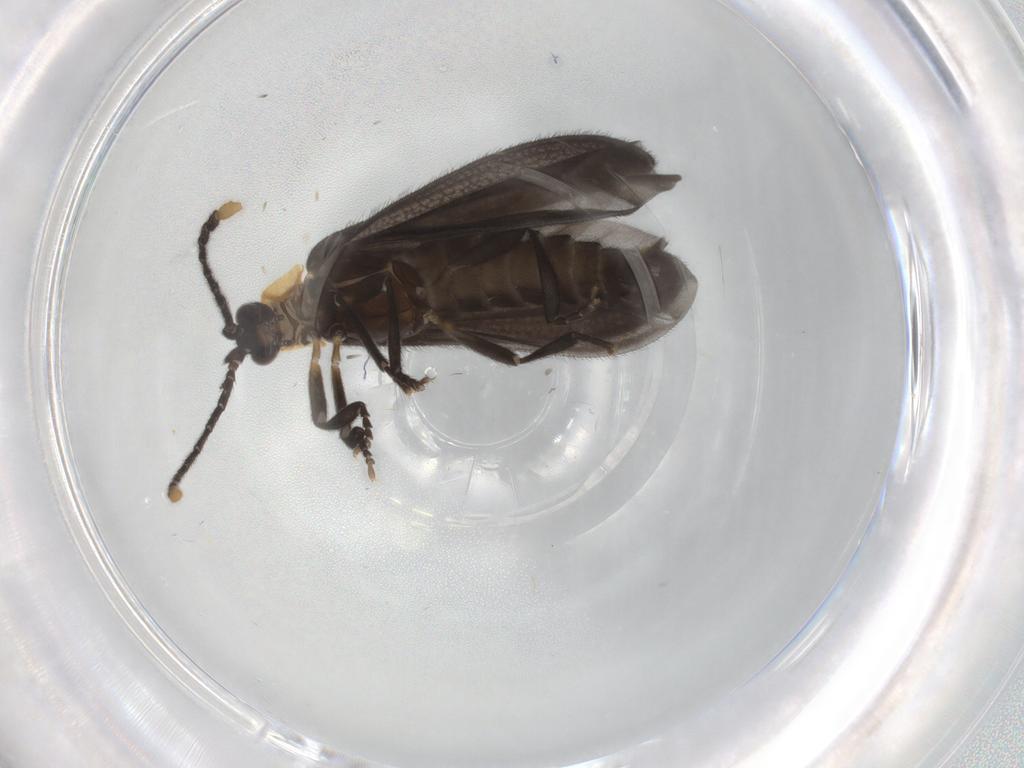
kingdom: Animalia
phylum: Arthropoda
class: Insecta
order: Coleoptera
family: Lycidae
